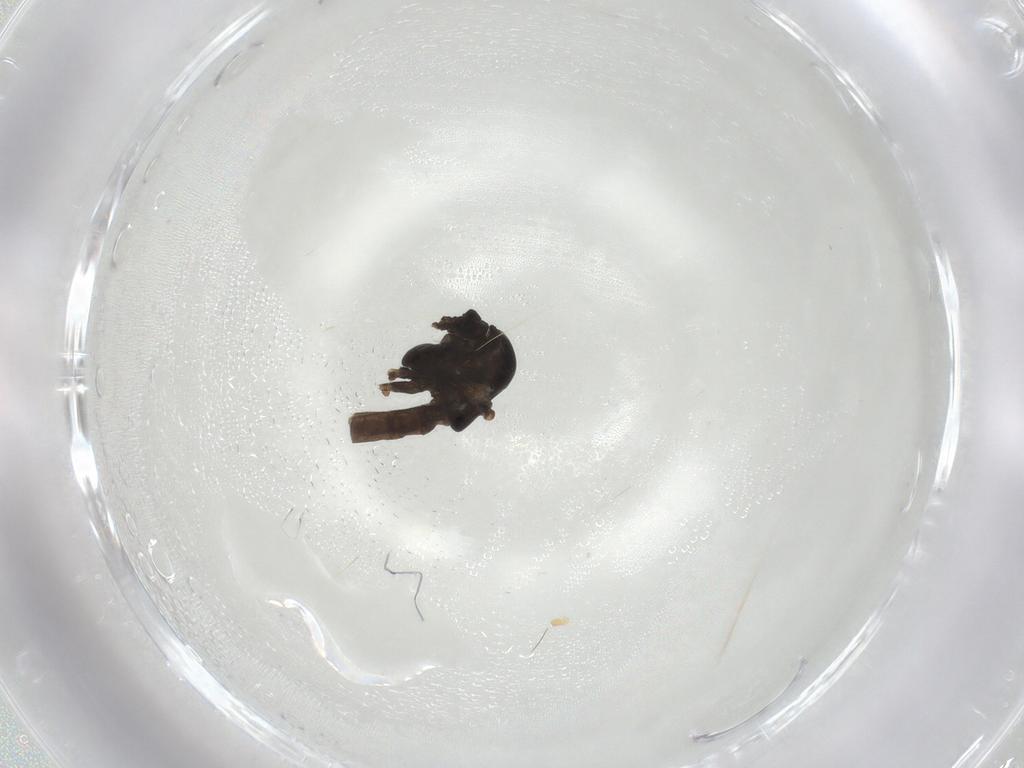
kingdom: Animalia
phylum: Arthropoda
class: Insecta
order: Diptera
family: Chironomidae
